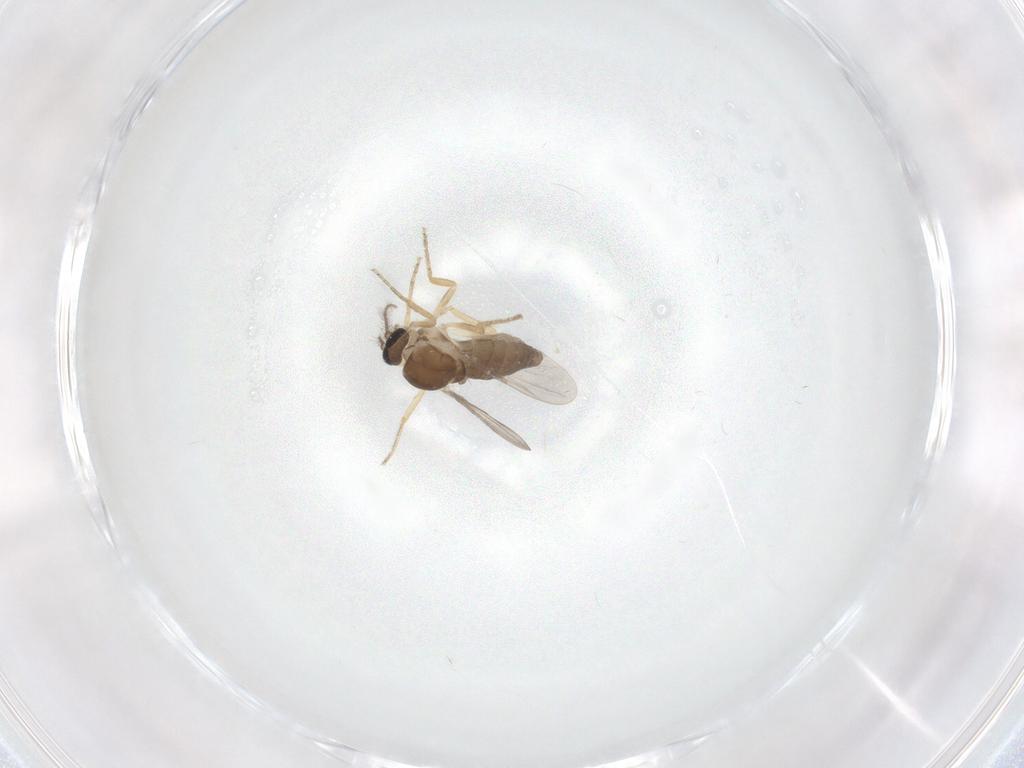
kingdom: Animalia
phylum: Arthropoda
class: Insecta
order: Diptera
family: Ceratopogonidae
